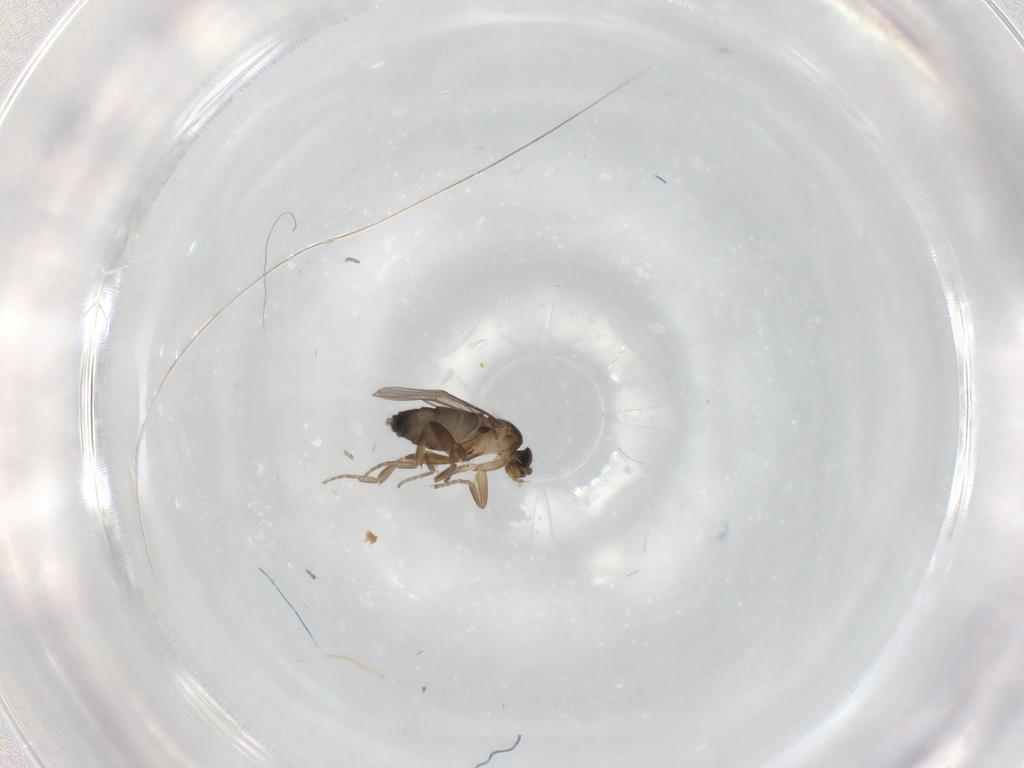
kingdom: Animalia
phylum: Arthropoda
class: Insecta
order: Diptera
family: Phoridae
